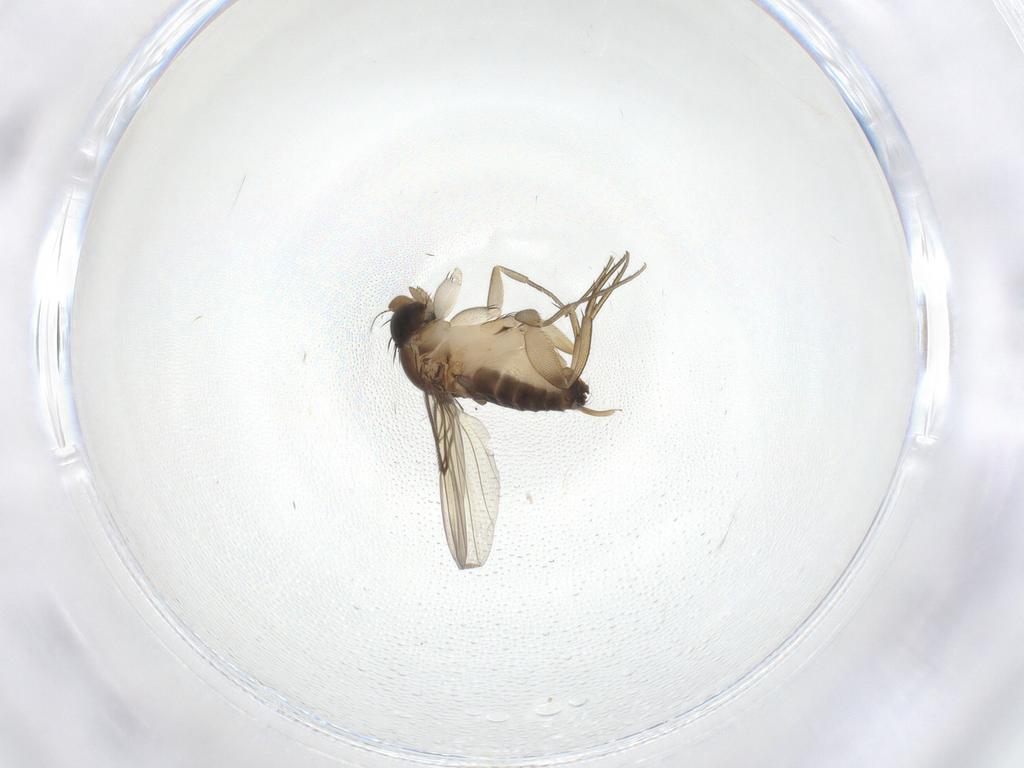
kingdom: Animalia
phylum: Arthropoda
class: Insecta
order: Diptera
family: Phoridae
